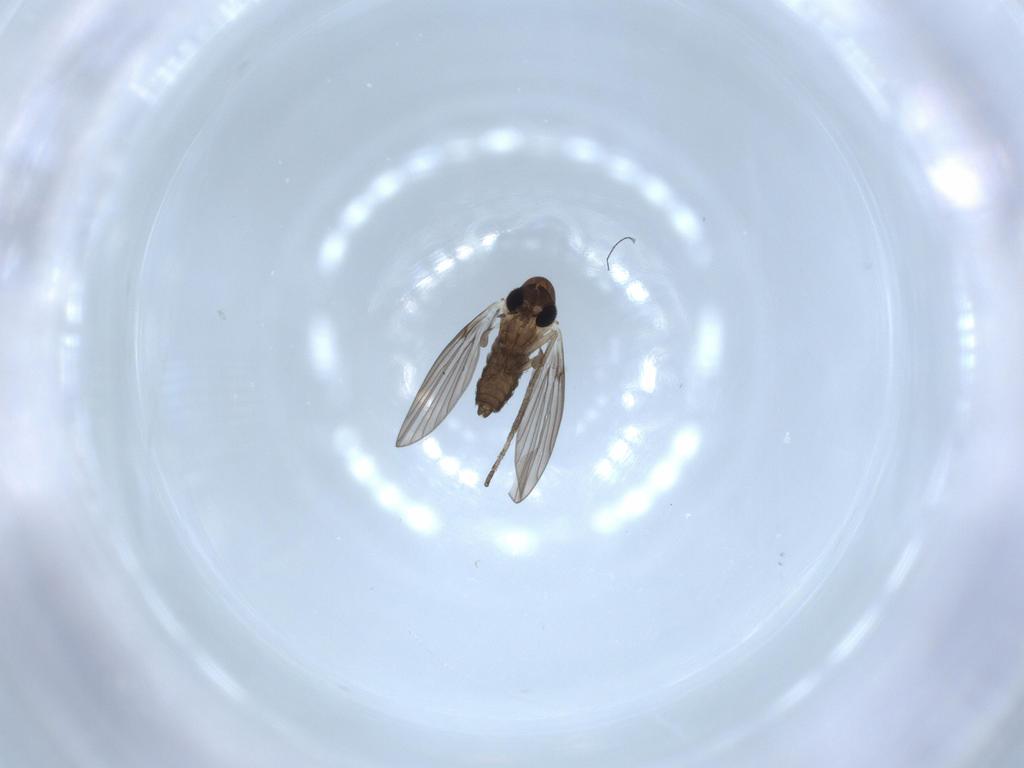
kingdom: Animalia
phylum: Arthropoda
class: Insecta
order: Diptera
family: Psychodidae
